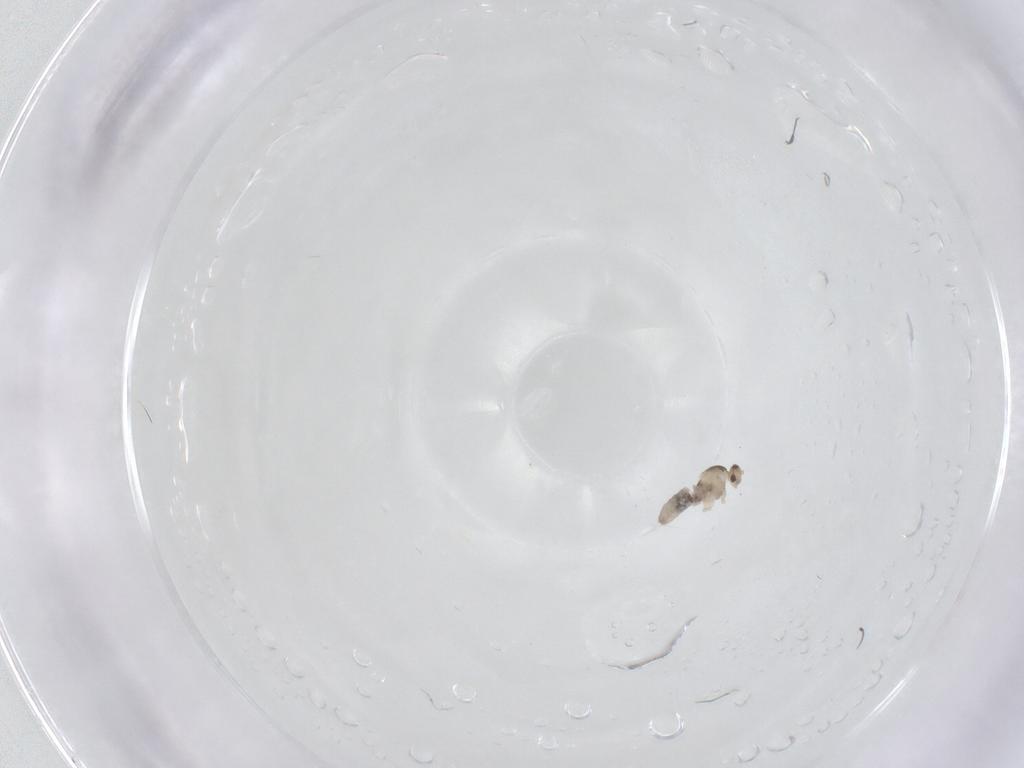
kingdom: Animalia
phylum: Arthropoda
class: Insecta
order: Diptera
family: Cecidomyiidae
